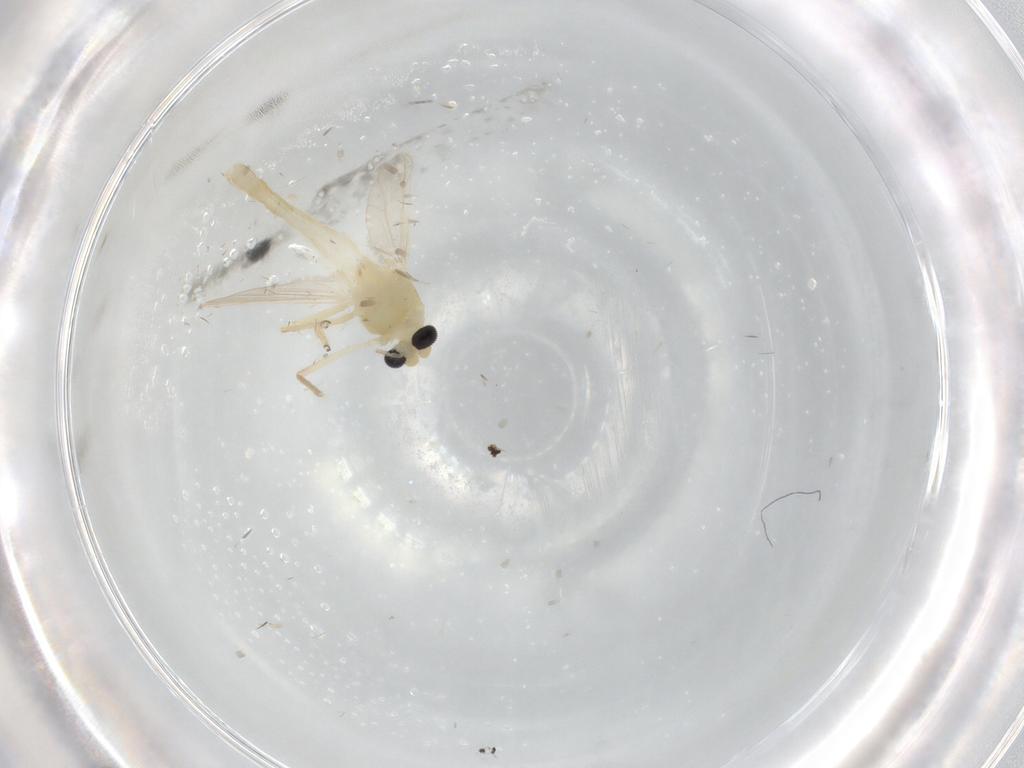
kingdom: Animalia
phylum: Arthropoda
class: Insecta
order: Diptera
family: Chironomidae
